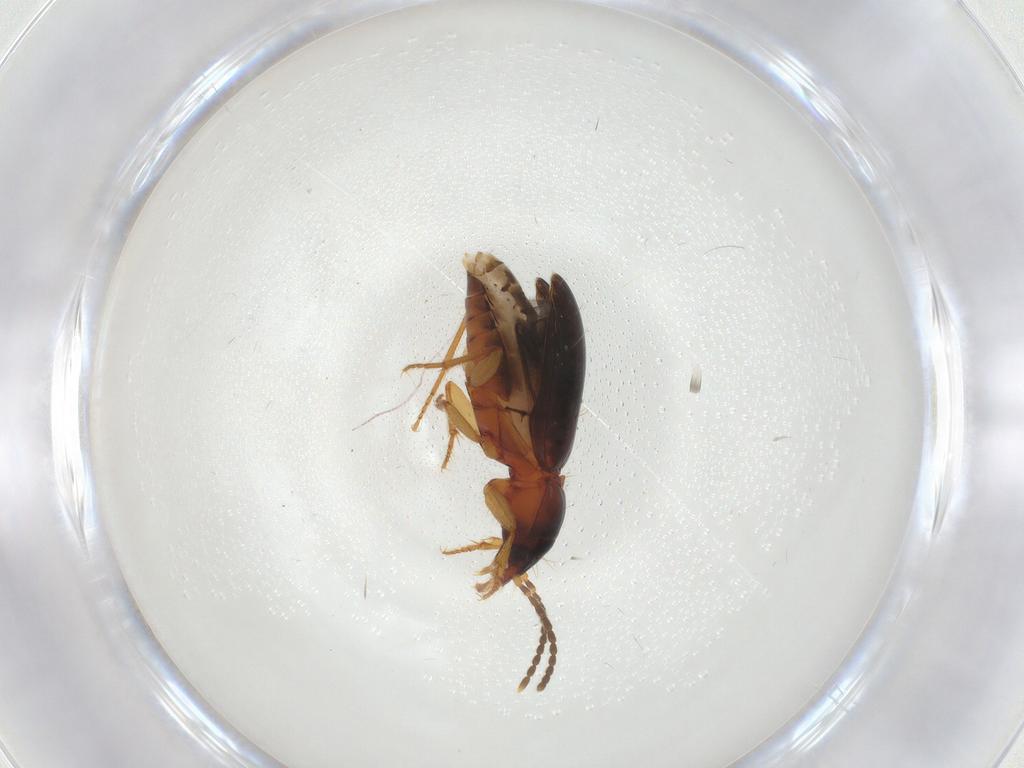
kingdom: Animalia
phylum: Arthropoda
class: Insecta
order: Coleoptera
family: Carabidae
